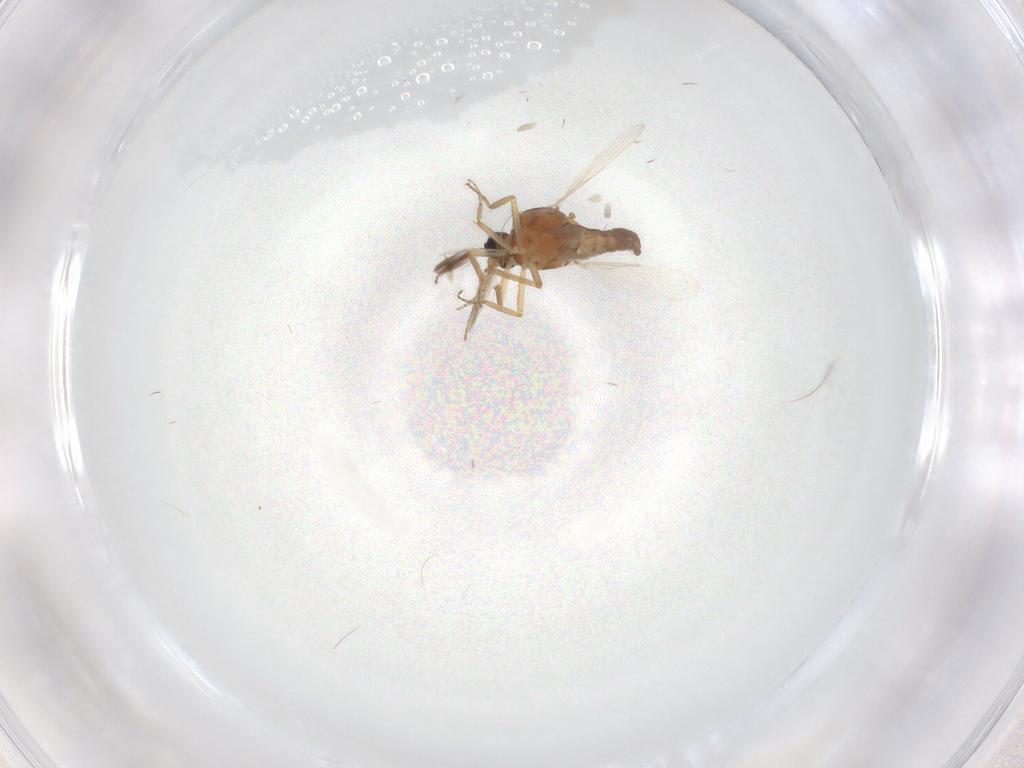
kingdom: Animalia
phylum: Arthropoda
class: Insecta
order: Diptera
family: Ceratopogonidae
